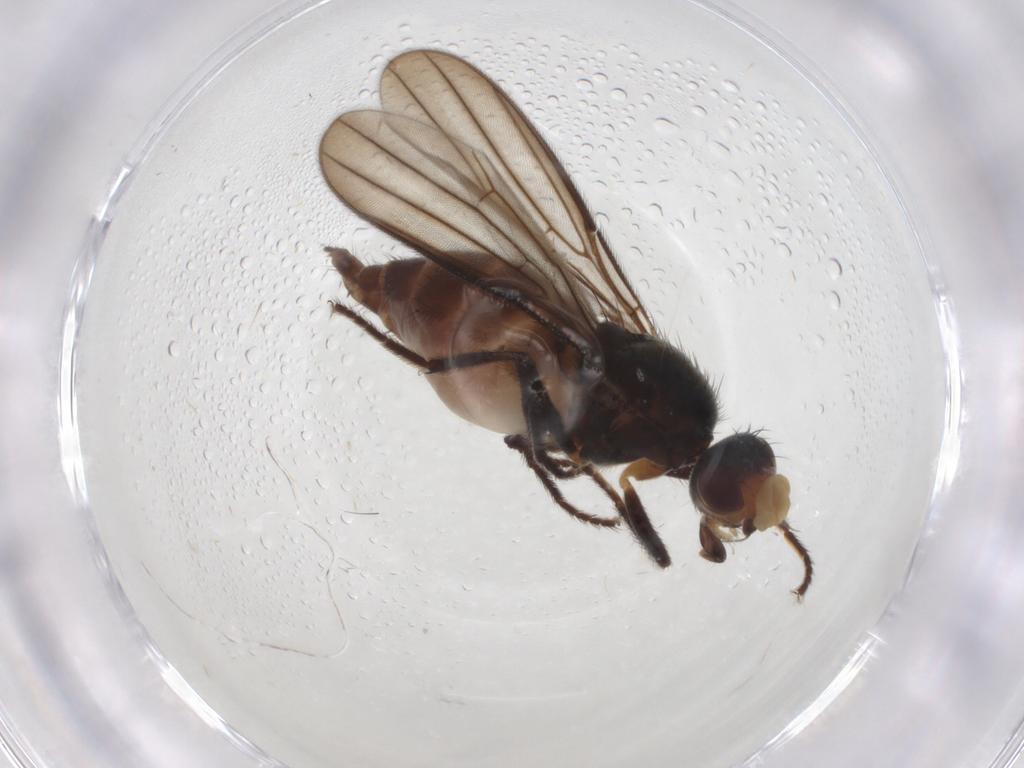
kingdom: Animalia
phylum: Arthropoda
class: Insecta
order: Diptera
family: Chloropidae
